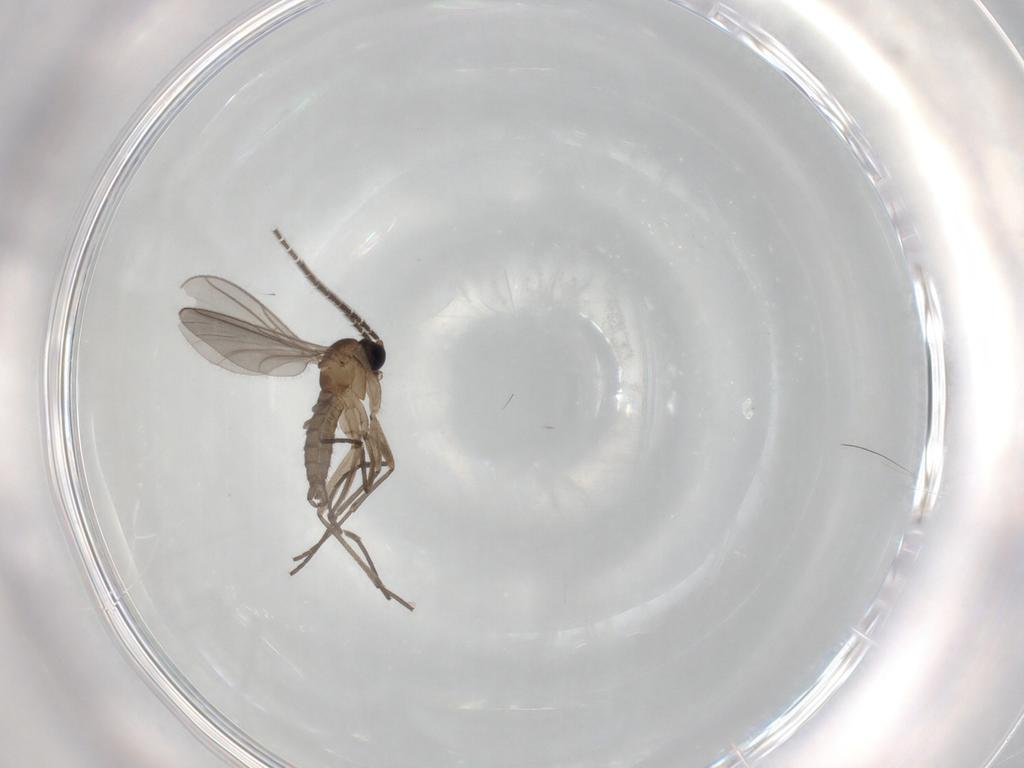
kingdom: Animalia
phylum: Arthropoda
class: Insecta
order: Diptera
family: Sciaridae
